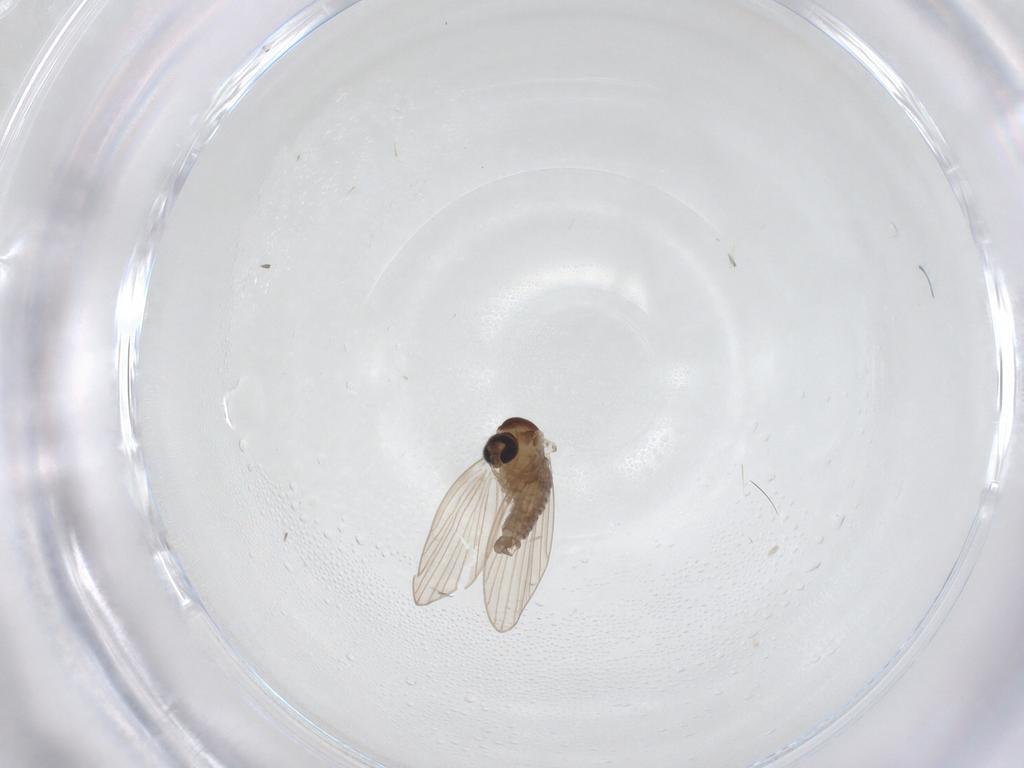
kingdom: Animalia
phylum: Arthropoda
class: Insecta
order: Diptera
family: Psychodidae
